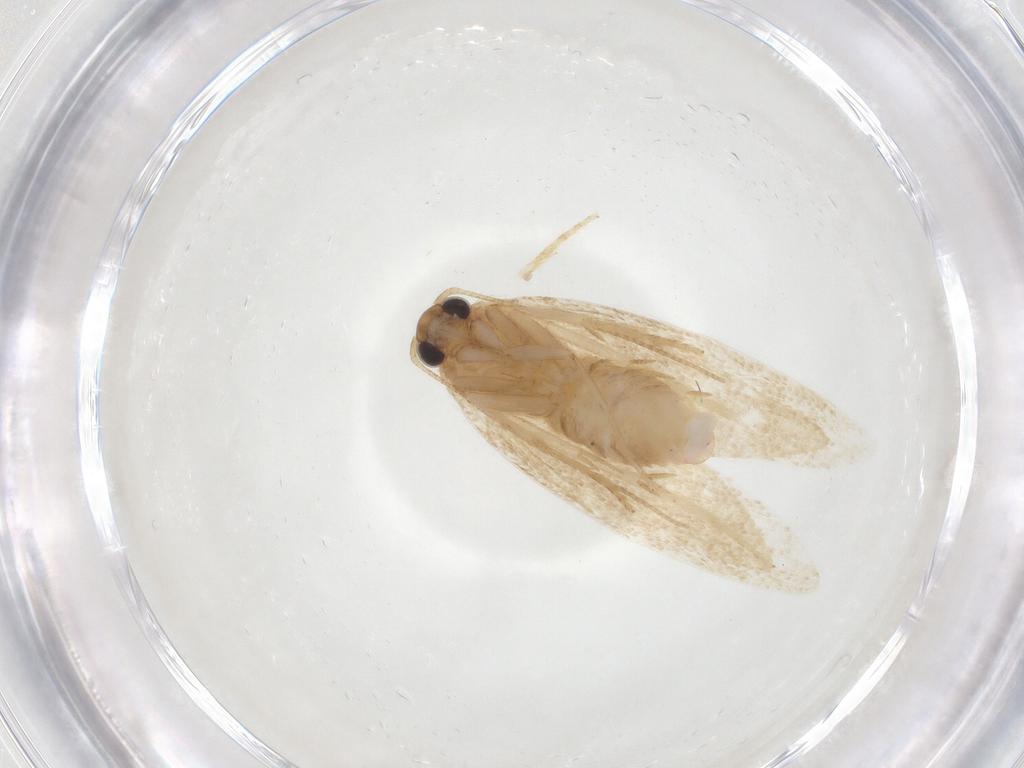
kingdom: Animalia
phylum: Arthropoda
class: Insecta
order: Lepidoptera
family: Autostichidae
